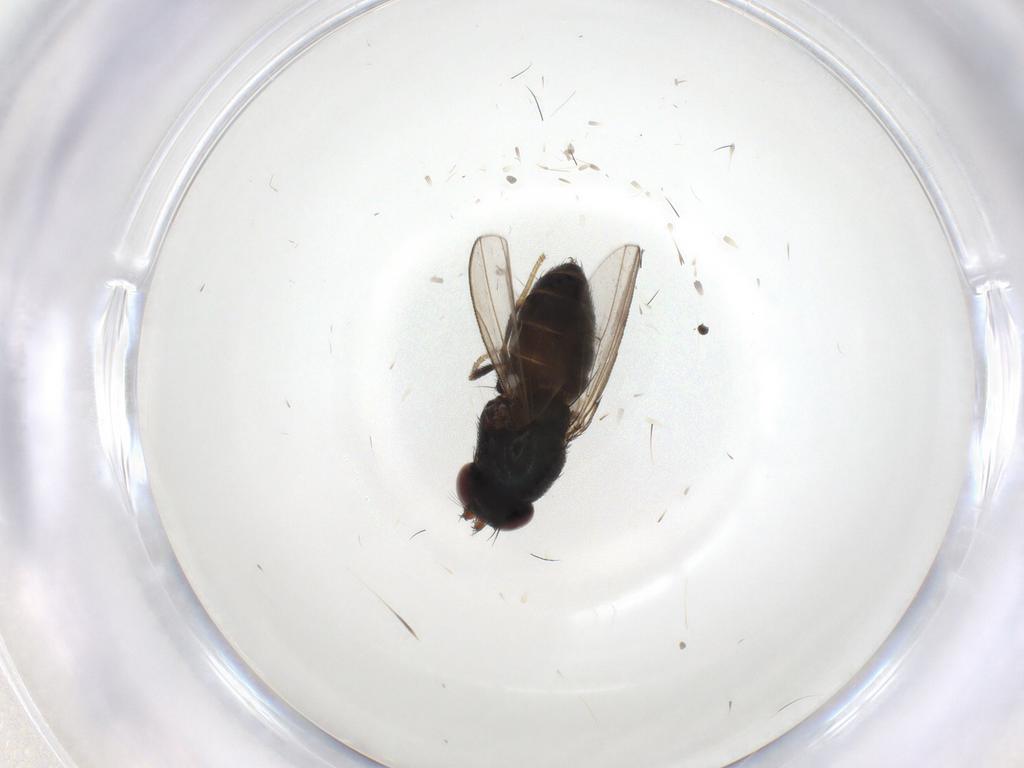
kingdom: Animalia
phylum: Arthropoda
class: Insecta
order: Diptera
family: Ephydridae
